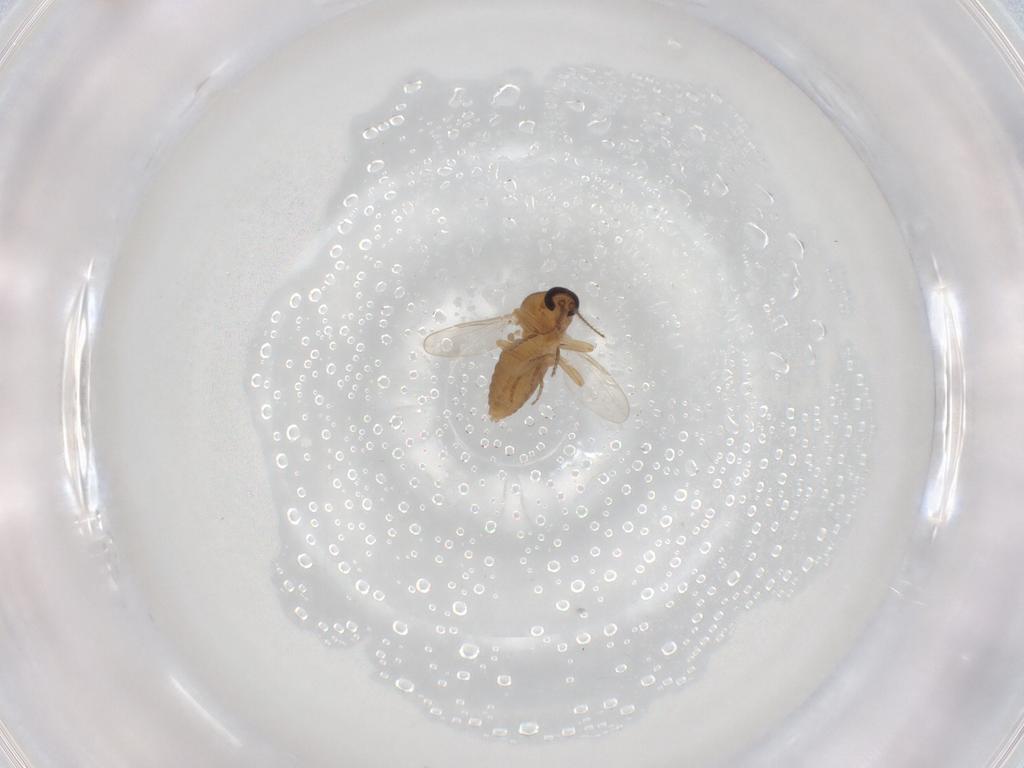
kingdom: Animalia
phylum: Arthropoda
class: Insecta
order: Diptera
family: Ceratopogonidae
